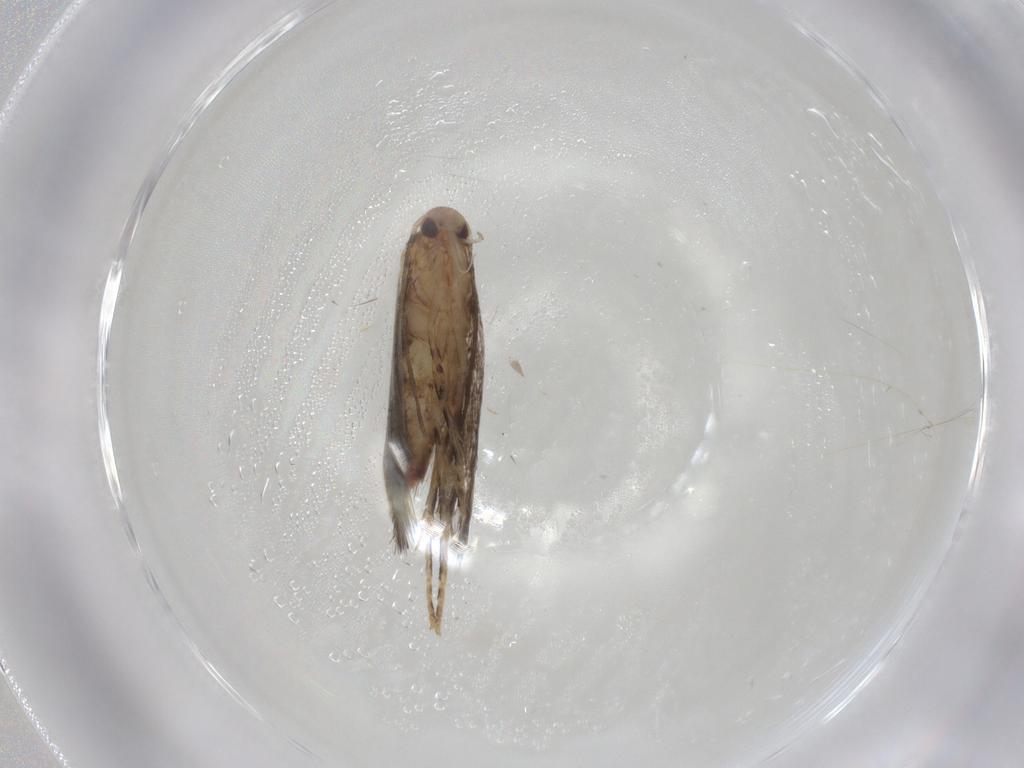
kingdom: Animalia
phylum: Arthropoda
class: Insecta
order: Lepidoptera
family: Elachistidae
